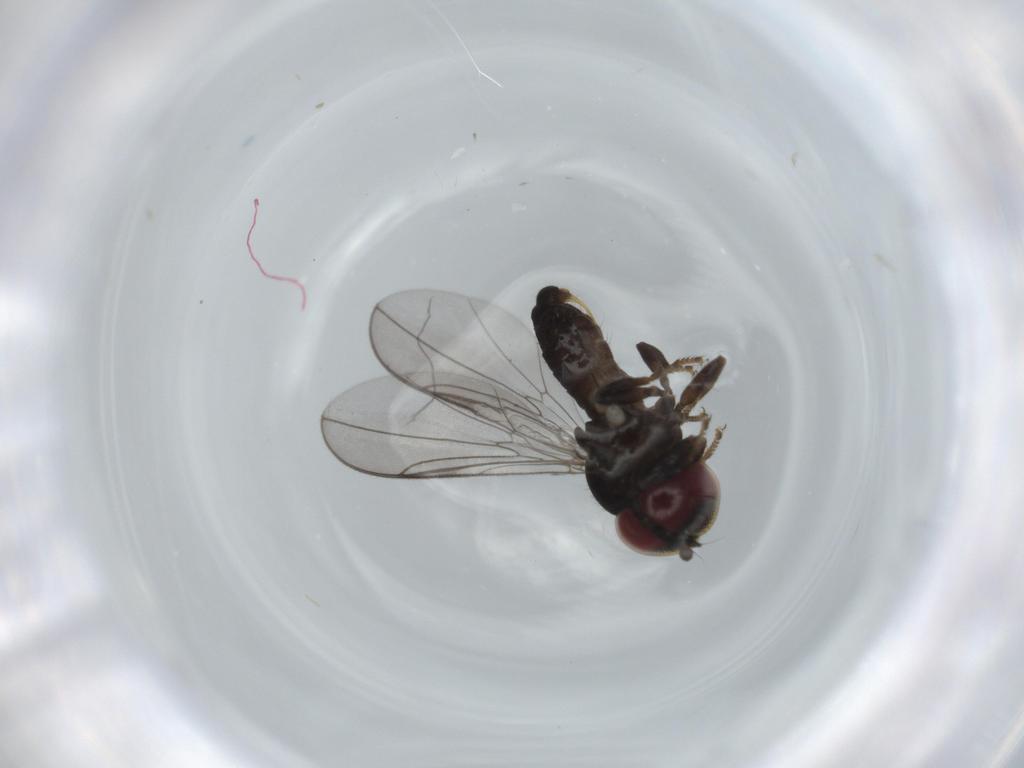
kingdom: Animalia
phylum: Arthropoda
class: Insecta
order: Diptera
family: Pipunculidae
